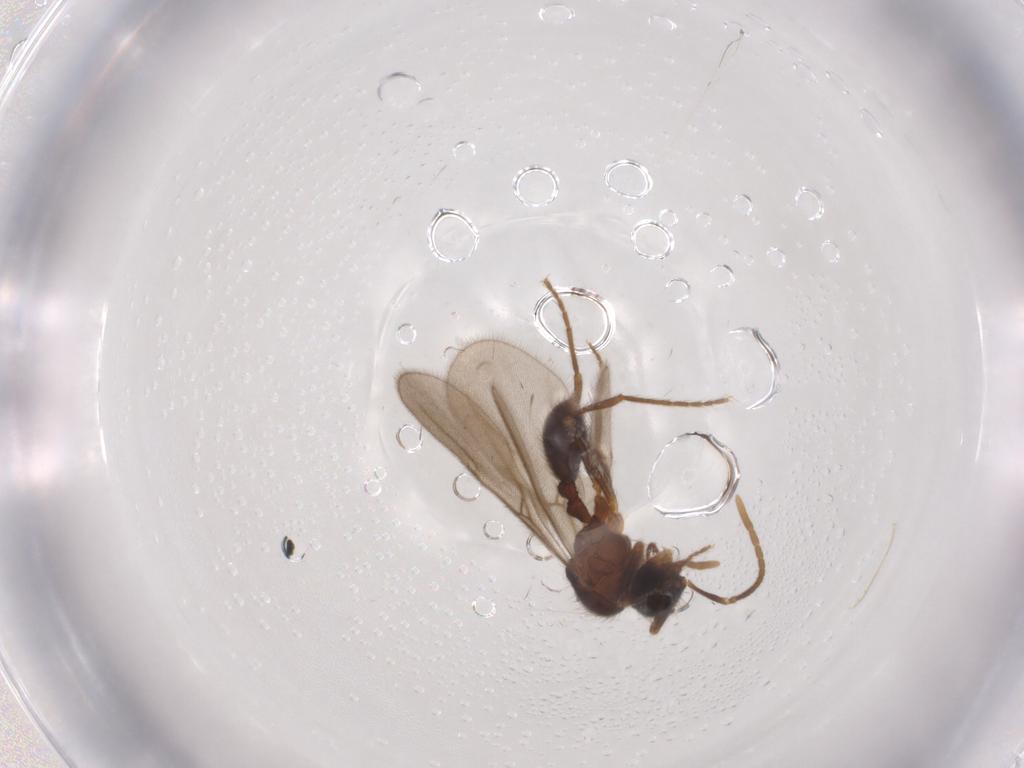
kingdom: Animalia
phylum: Arthropoda
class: Insecta
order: Hymenoptera
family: Formicidae
